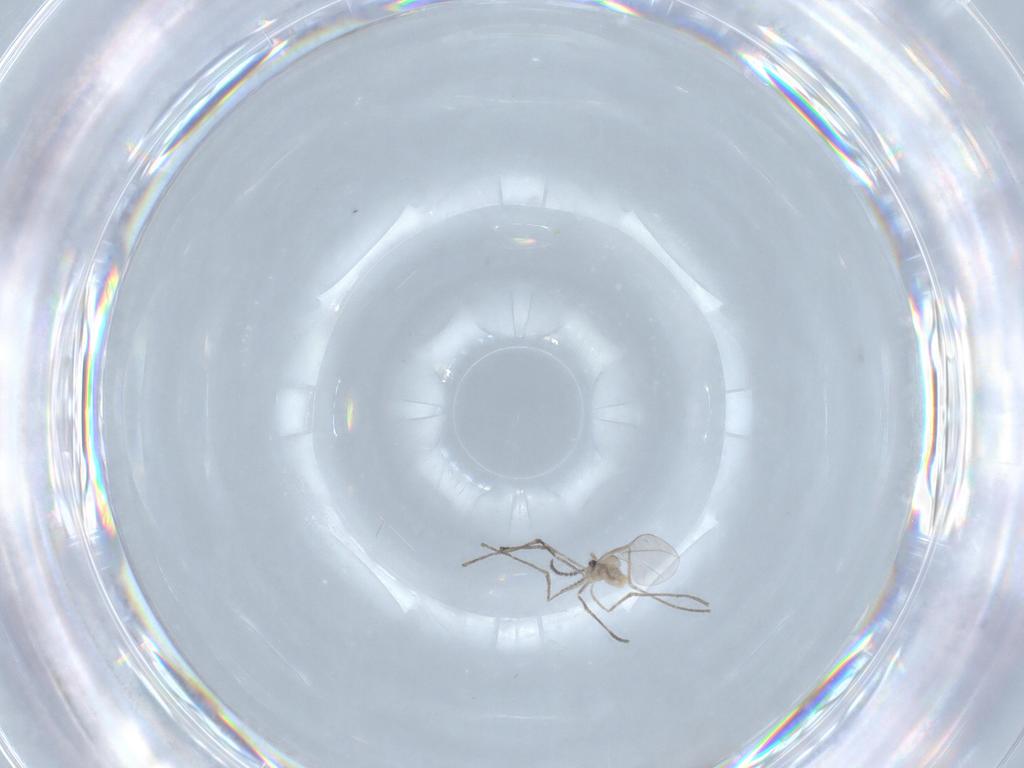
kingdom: Animalia
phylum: Arthropoda
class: Insecta
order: Diptera
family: Cecidomyiidae
